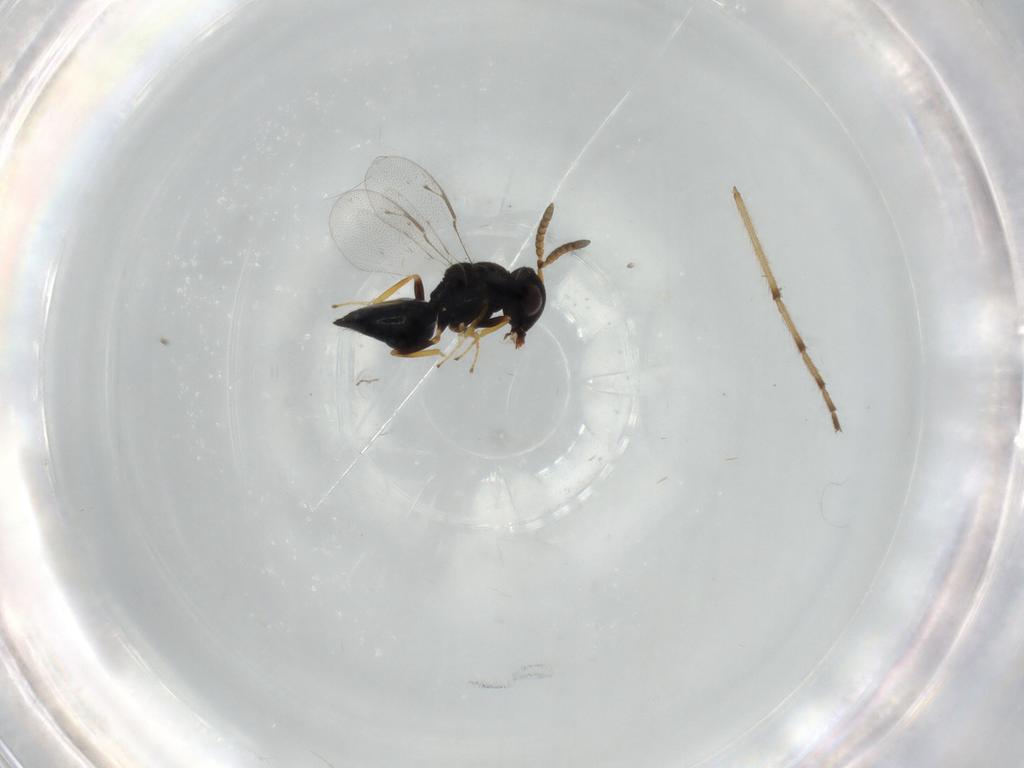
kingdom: Animalia
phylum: Arthropoda
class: Insecta
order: Hymenoptera
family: Pteromalidae
